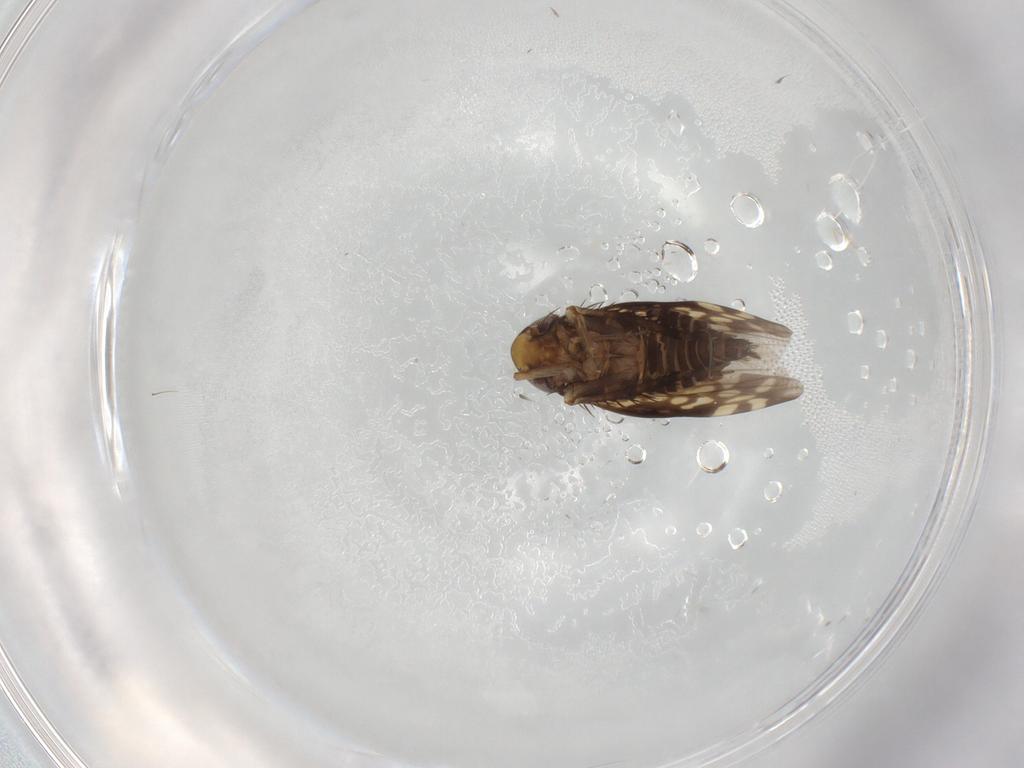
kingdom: Animalia
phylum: Arthropoda
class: Insecta
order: Hemiptera
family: Cicadellidae
